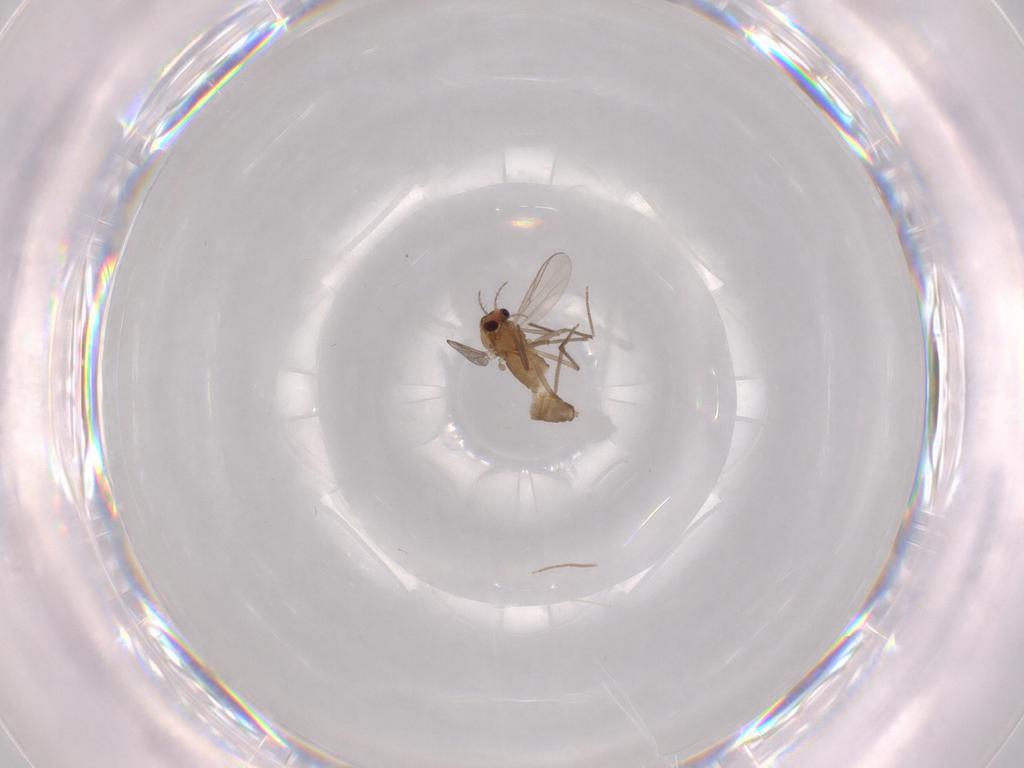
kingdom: Animalia
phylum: Arthropoda
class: Insecta
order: Diptera
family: Chironomidae
